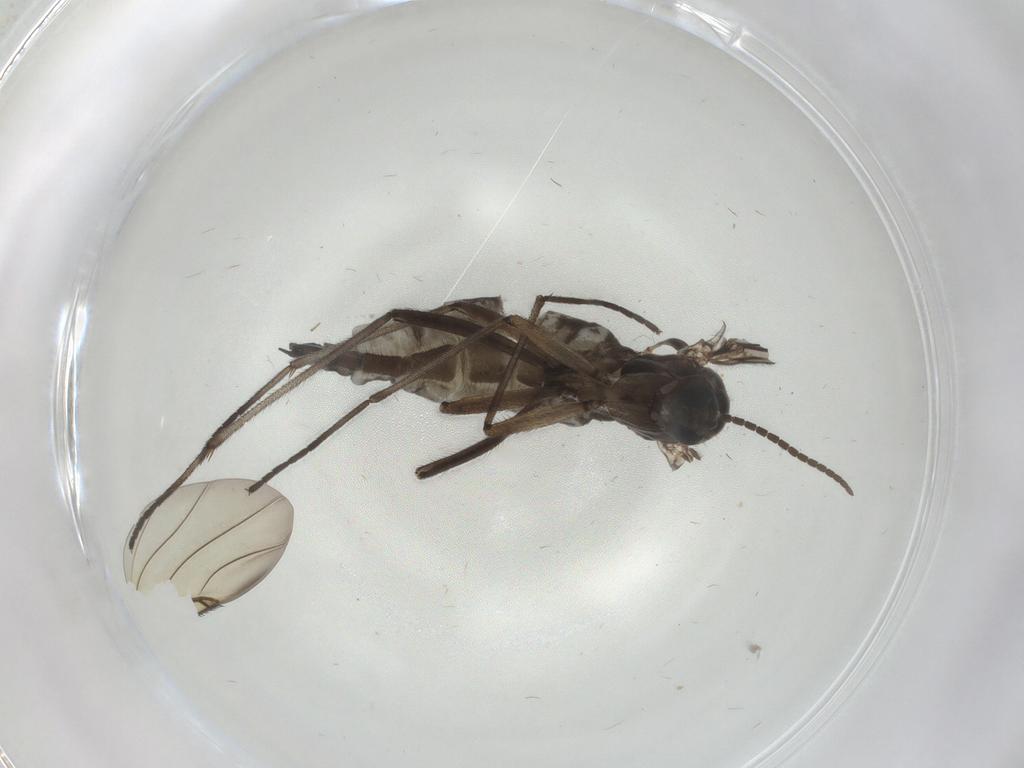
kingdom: Animalia
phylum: Arthropoda
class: Insecta
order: Diptera
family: Sciaridae
